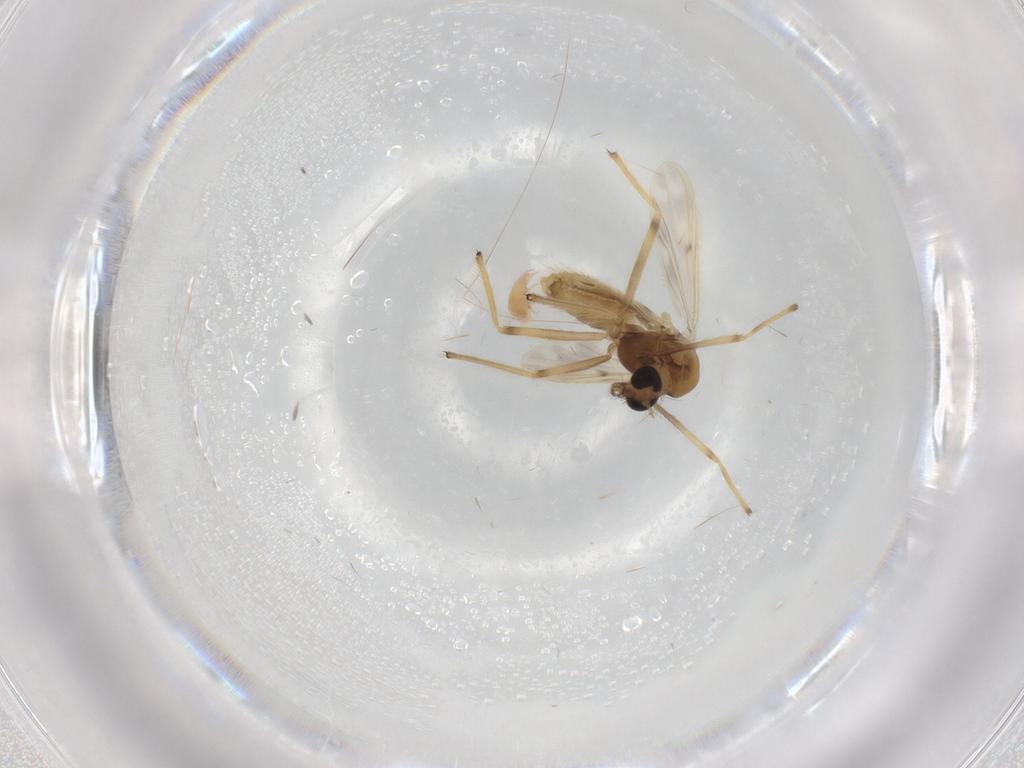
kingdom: Animalia
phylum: Arthropoda
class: Insecta
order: Diptera
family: Chironomidae
